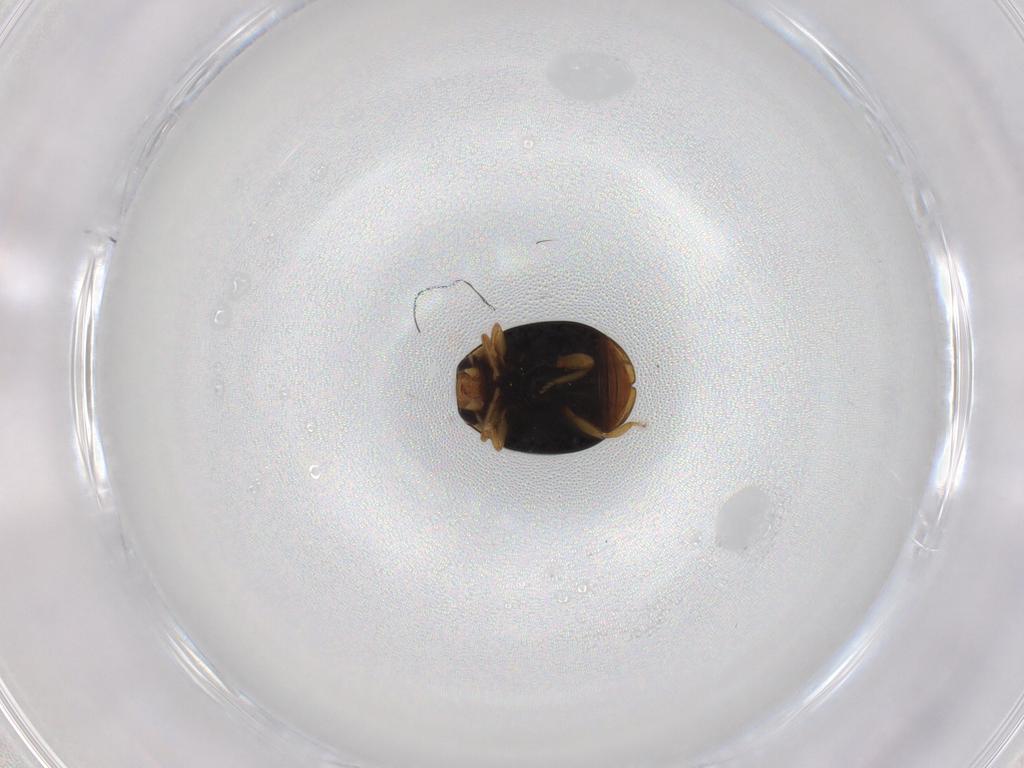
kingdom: Animalia
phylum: Arthropoda
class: Insecta
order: Coleoptera
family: Coccinellidae
